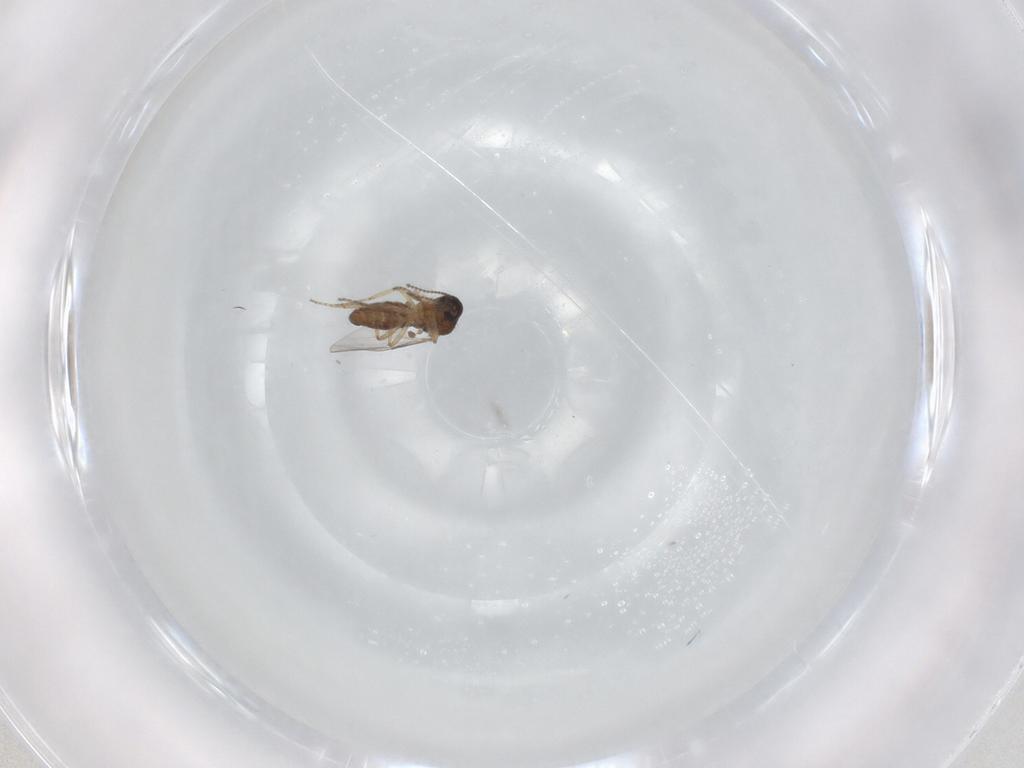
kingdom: Animalia
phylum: Arthropoda
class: Insecta
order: Diptera
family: Ceratopogonidae
